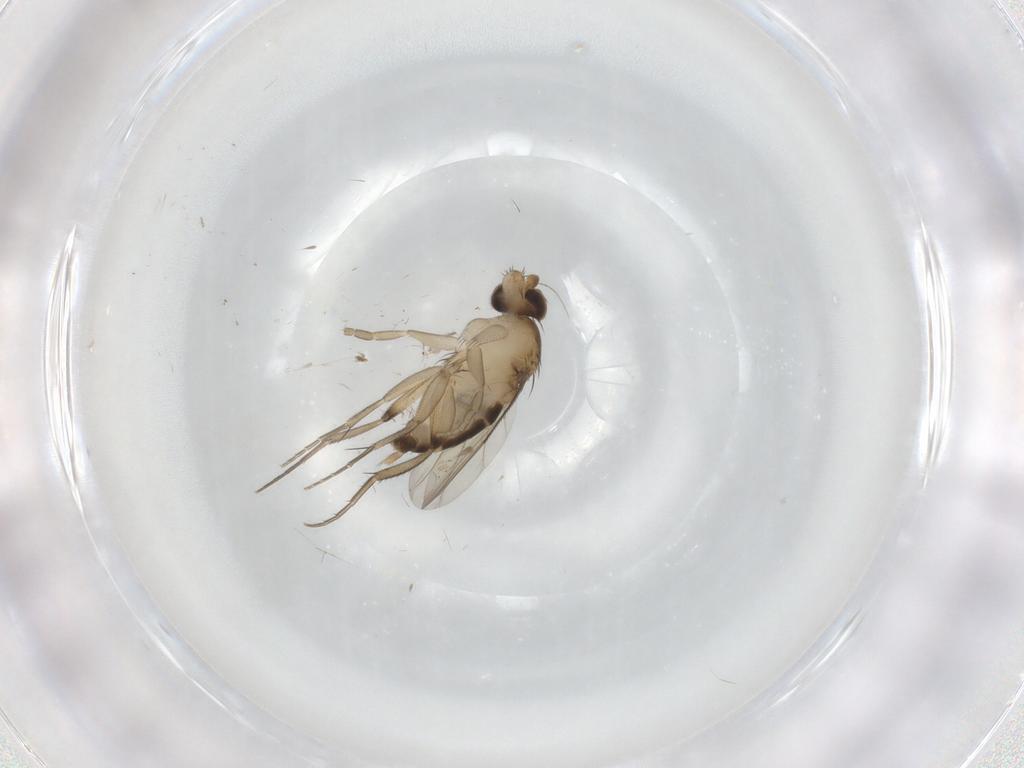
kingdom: Animalia
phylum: Arthropoda
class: Insecta
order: Diptera
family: Phoridae
